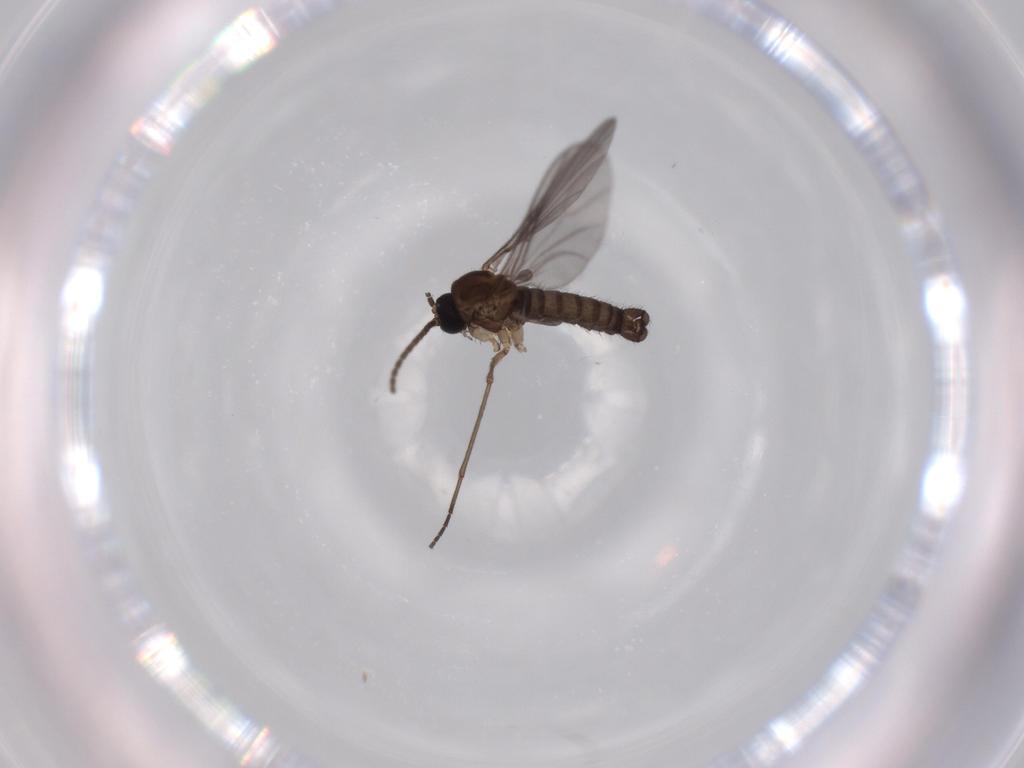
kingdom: Animalia
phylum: Arthropoda
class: Insecta
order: Diptera
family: Sciaridae
